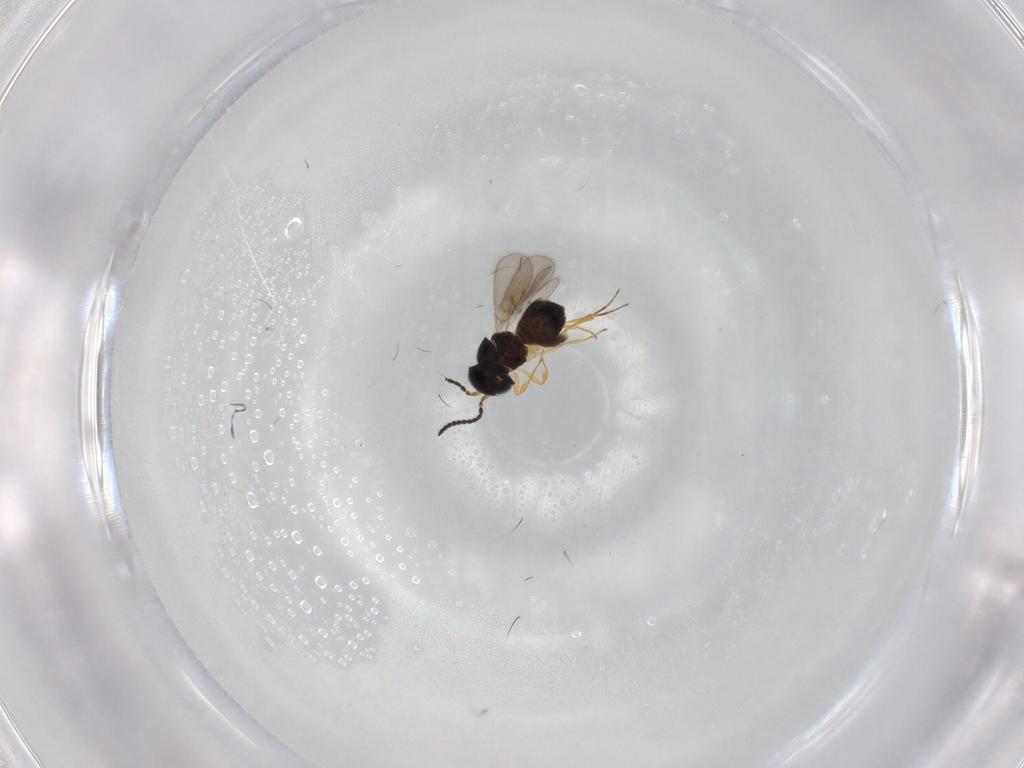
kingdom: Animalia
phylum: Arthropoda
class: Insecta
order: Hymenoptera
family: Scelionidae
